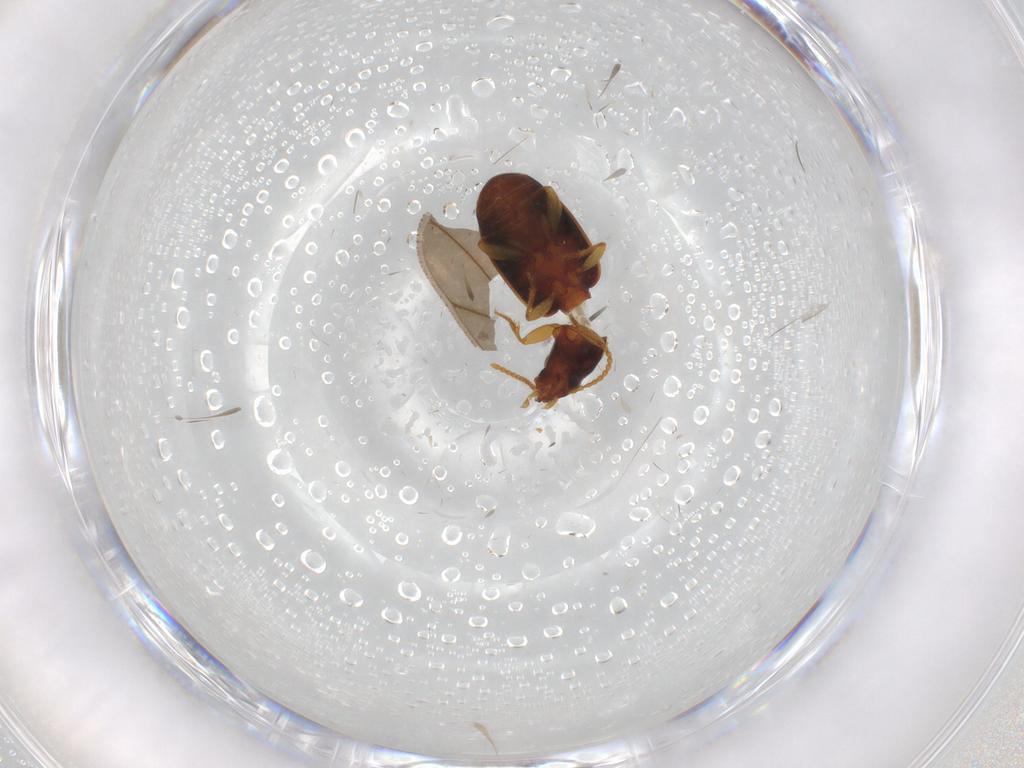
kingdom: Animalia
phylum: Arthropoda
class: Insecta
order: Coleoptera
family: Carabidae
